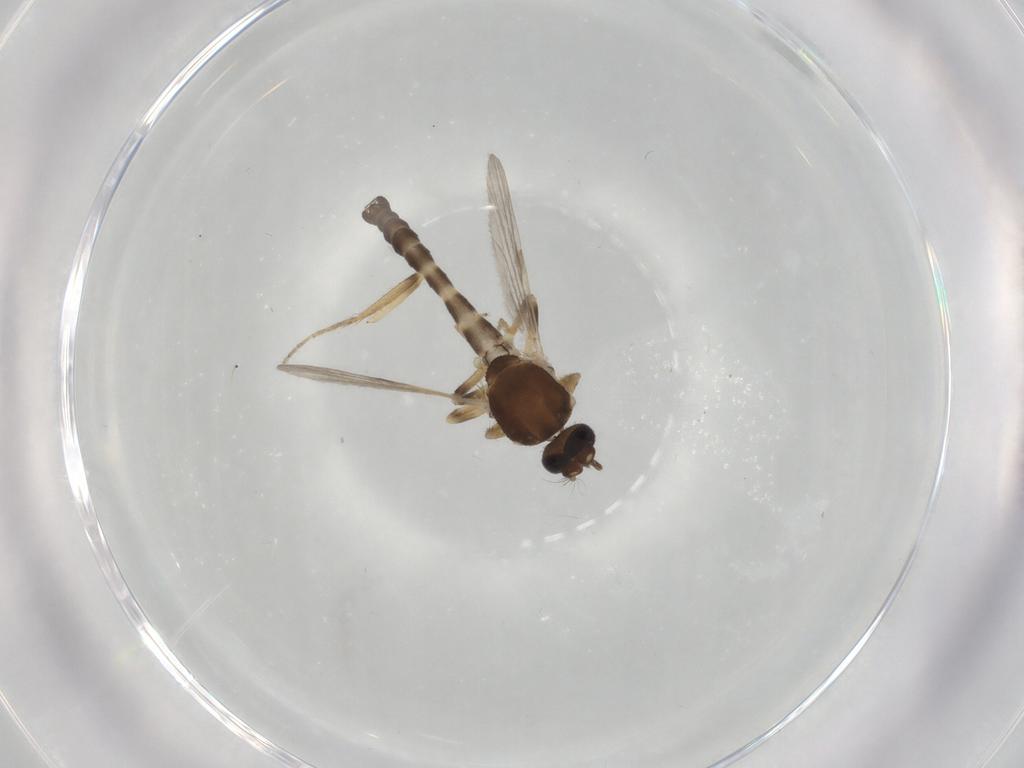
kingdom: Animalia
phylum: Arthropoda
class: Insecta
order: Diptera
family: Ceratopogonidae
